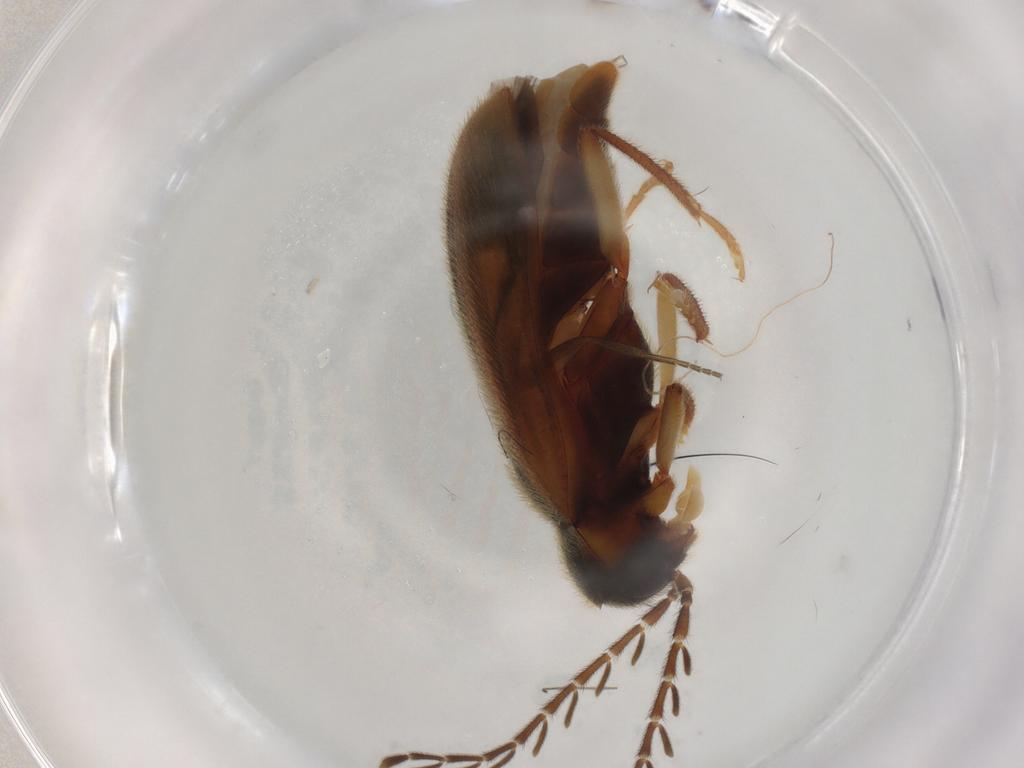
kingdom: Animalia
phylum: Arthropoda
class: Insecta
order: Coleoptera
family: Ptilodactylidae
